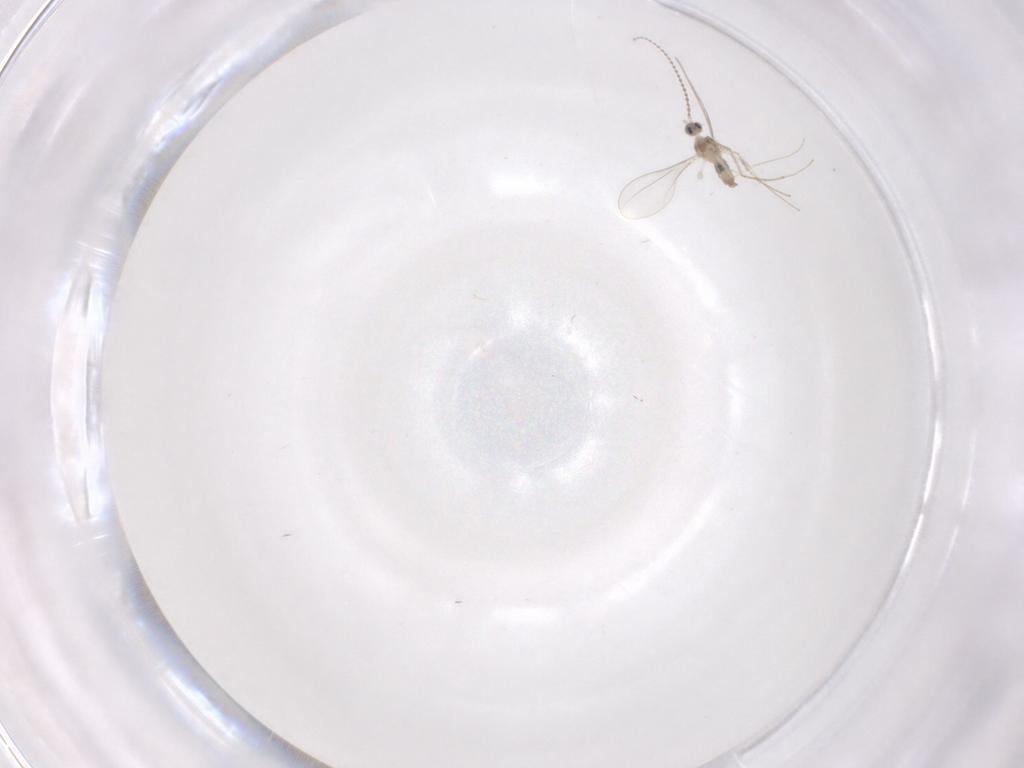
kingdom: Animalia
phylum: Arthropoda
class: Insecta
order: Diptera
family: Cecidomyiidae
